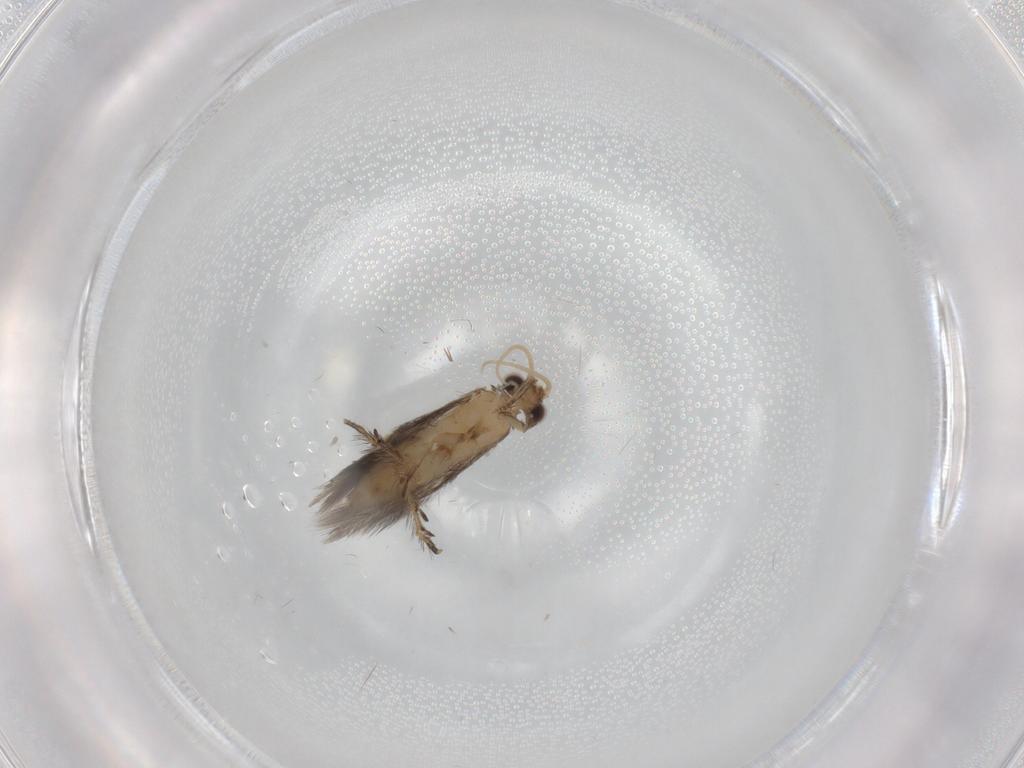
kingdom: Animalia
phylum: Arthropoda
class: Insecta
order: Trichoptera
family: Hydroptilidae
